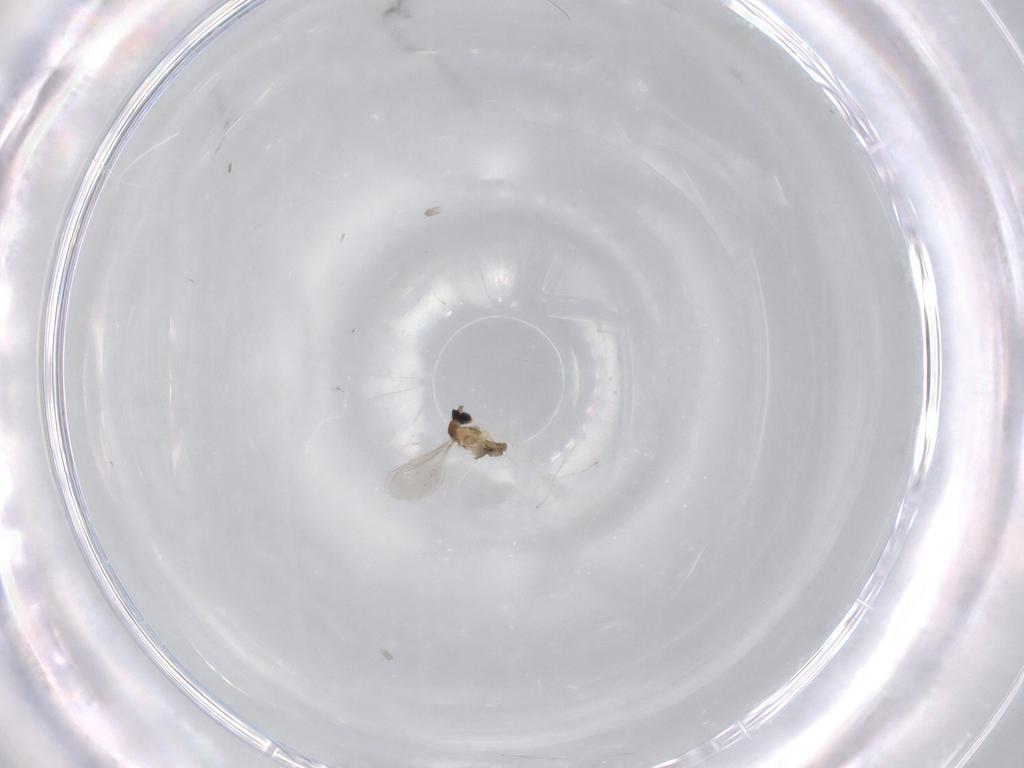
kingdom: Animalia
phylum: Arthropoda
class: Insecta
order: Diptera
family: Cecidomyiidae
